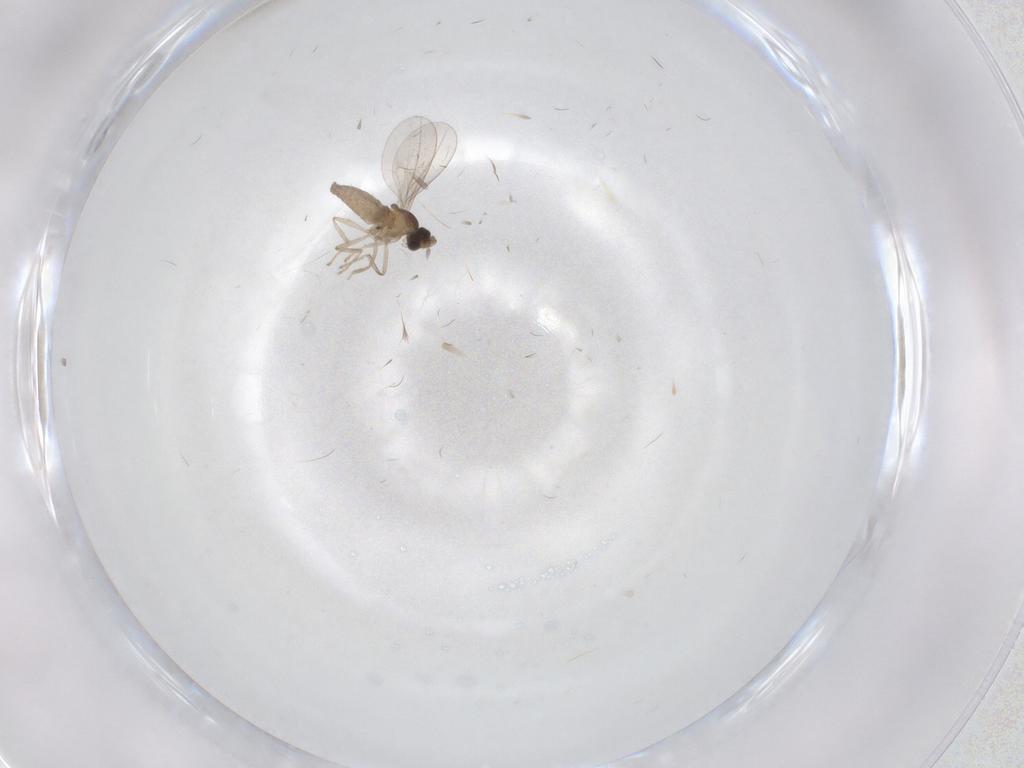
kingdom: Animalia
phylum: Arthropoda
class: Insecta
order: Diptera
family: Cecidomyiidae
